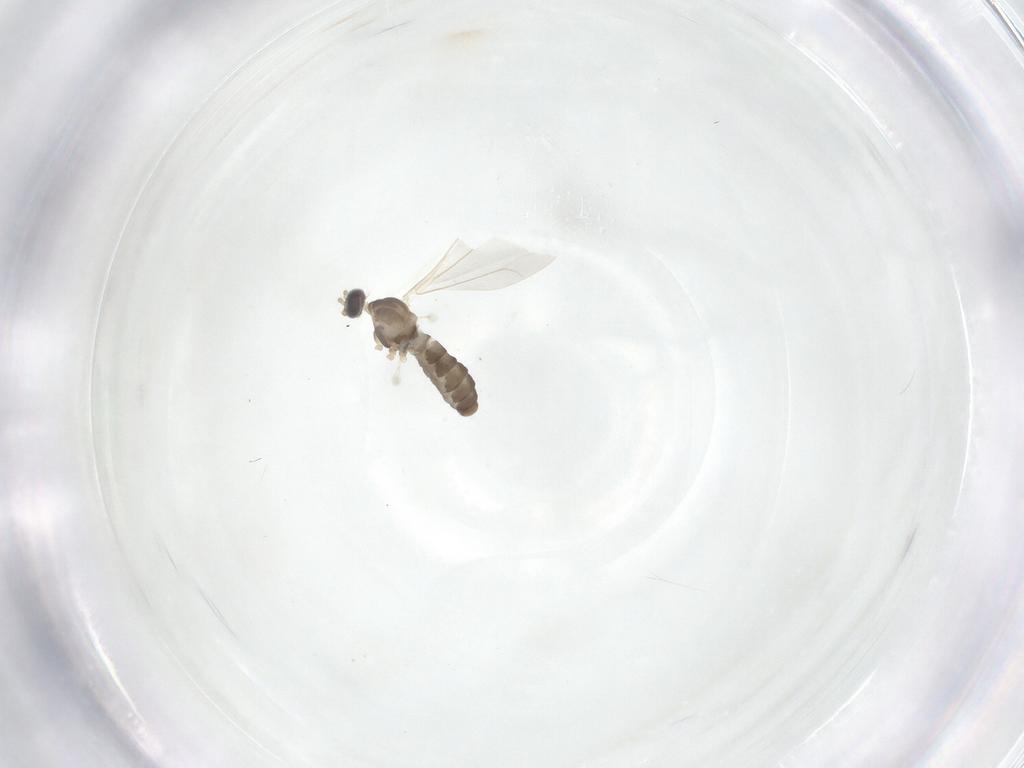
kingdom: Animalia
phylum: Arthropoda
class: Insecta
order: Diptera
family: Cecidomyiidae
